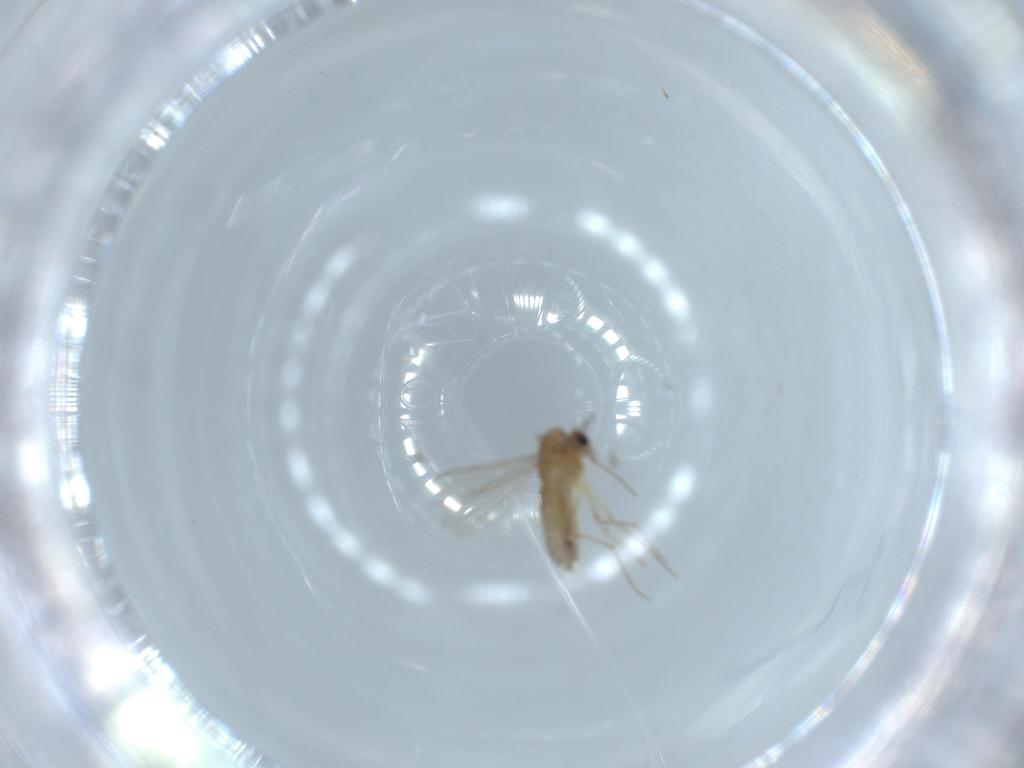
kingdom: Animalia
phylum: Arthropoda
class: Insecta
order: Diptera
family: Chironomidae
